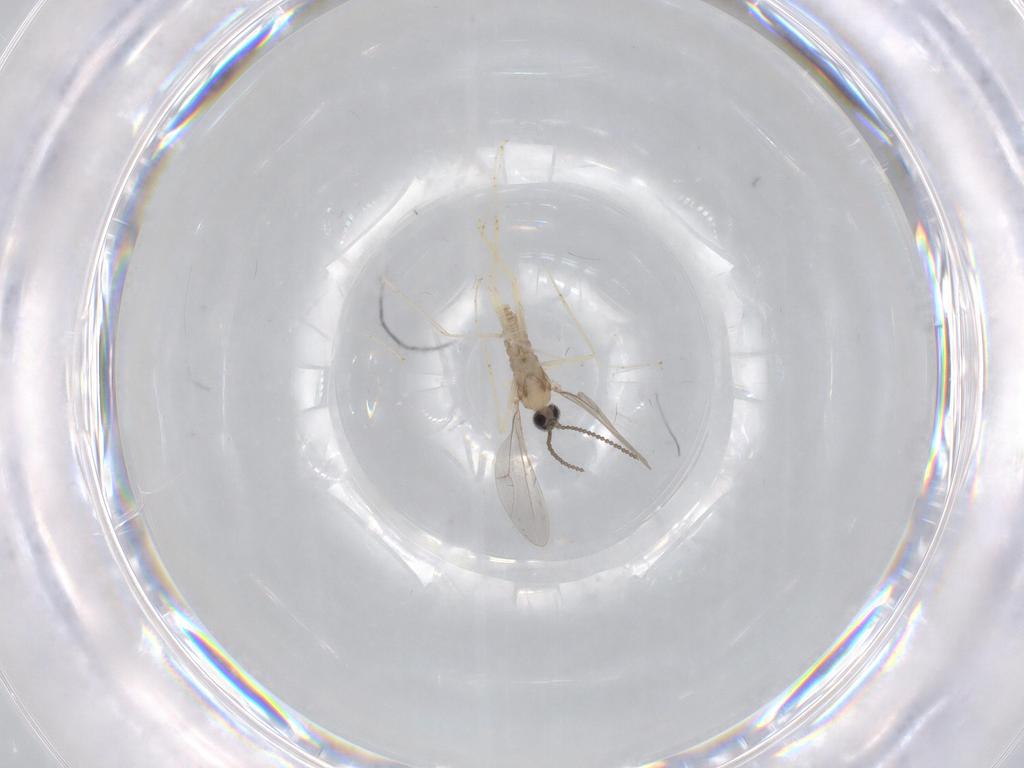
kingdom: Animalia
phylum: Arthropoda
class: Insecta
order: Diptera
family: Cecidomyiidae
